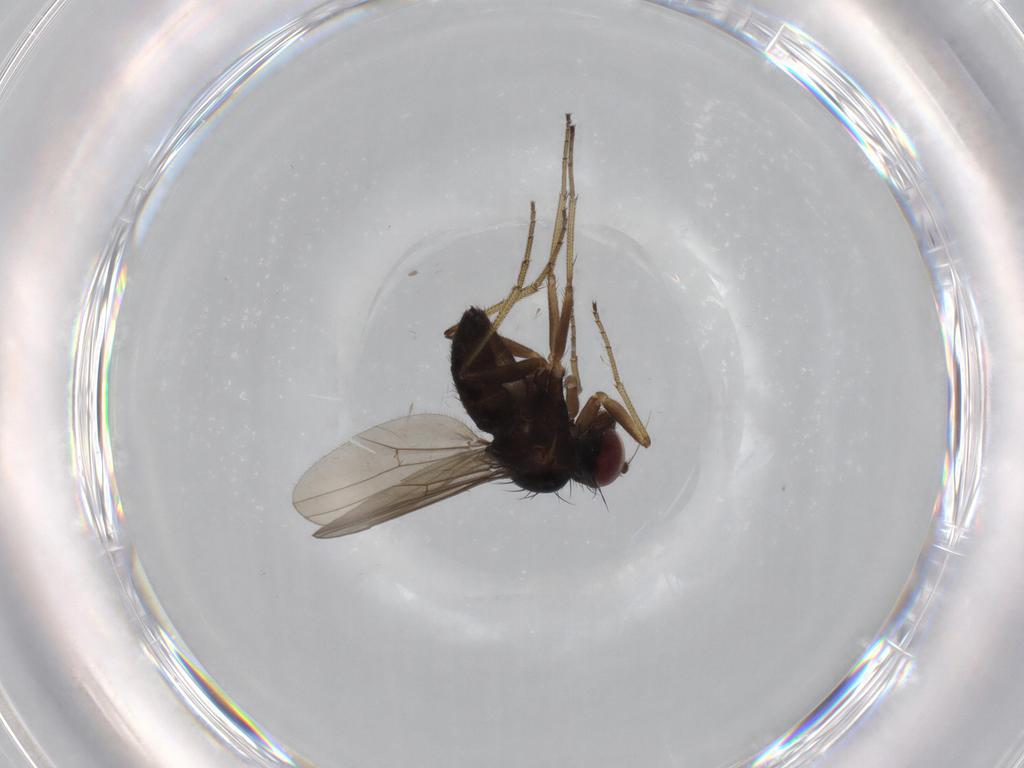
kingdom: Animalia
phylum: Arthropoda
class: Insecta
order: Diptera
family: Dolichopodidae
